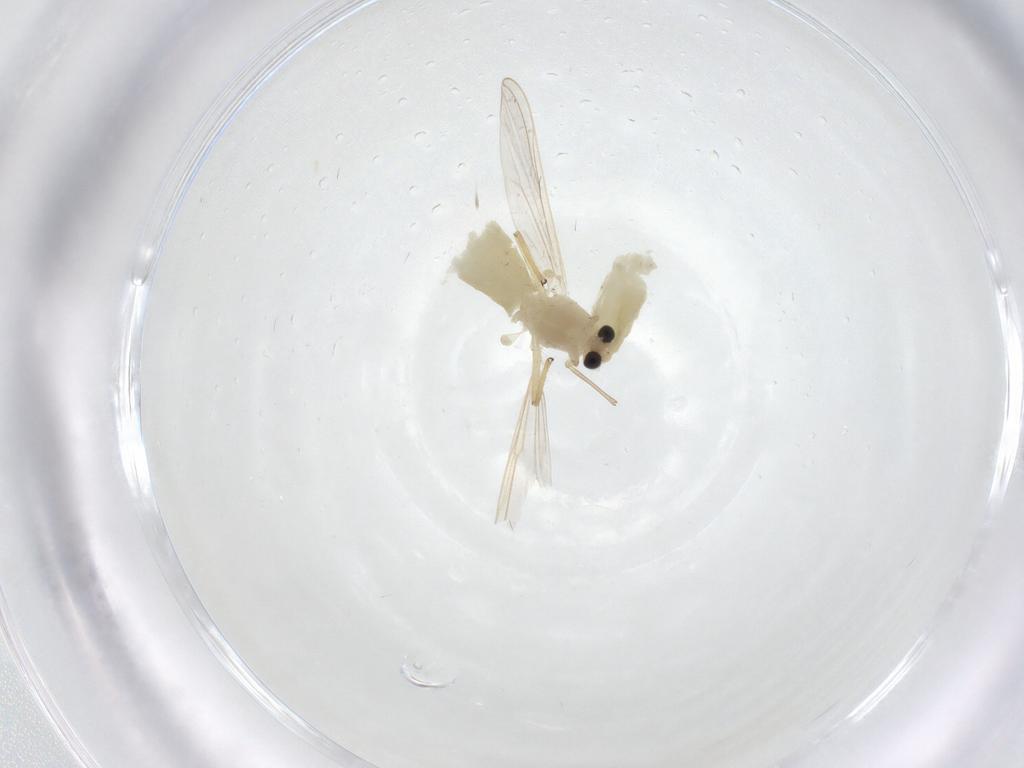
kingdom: Animalia
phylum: Arthropoda
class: Insecta
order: Diptera
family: Chironomidae
